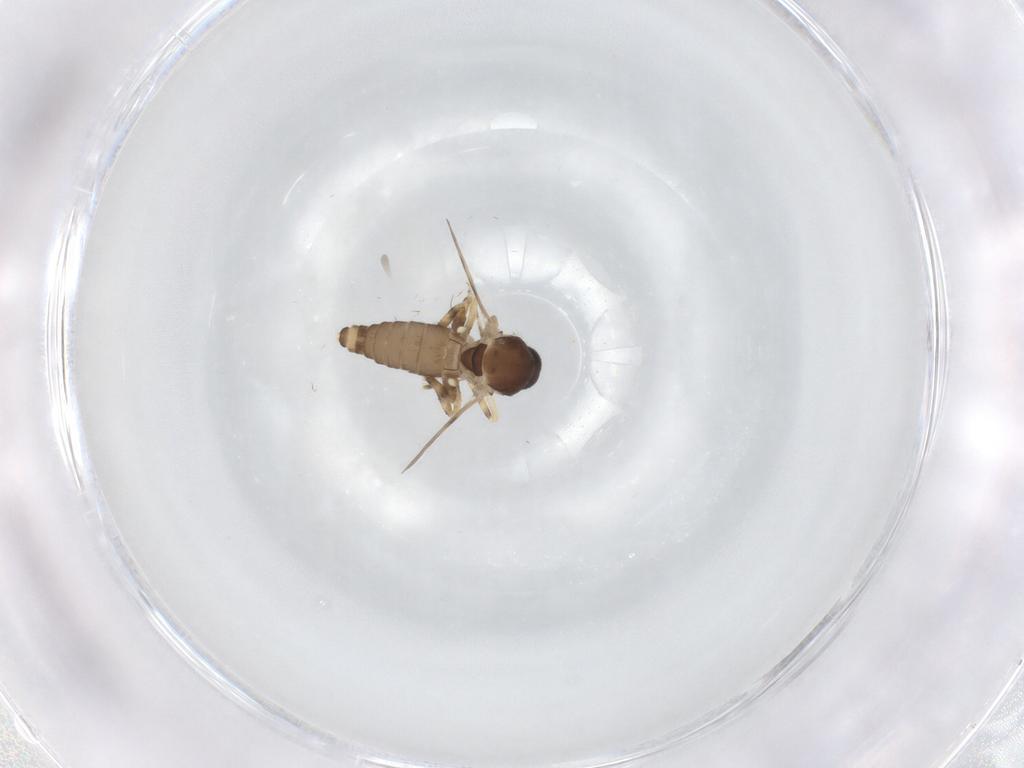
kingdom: Animalia
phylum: Arthropoda
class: Insecta
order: Diptera
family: Ceratopogonidae
